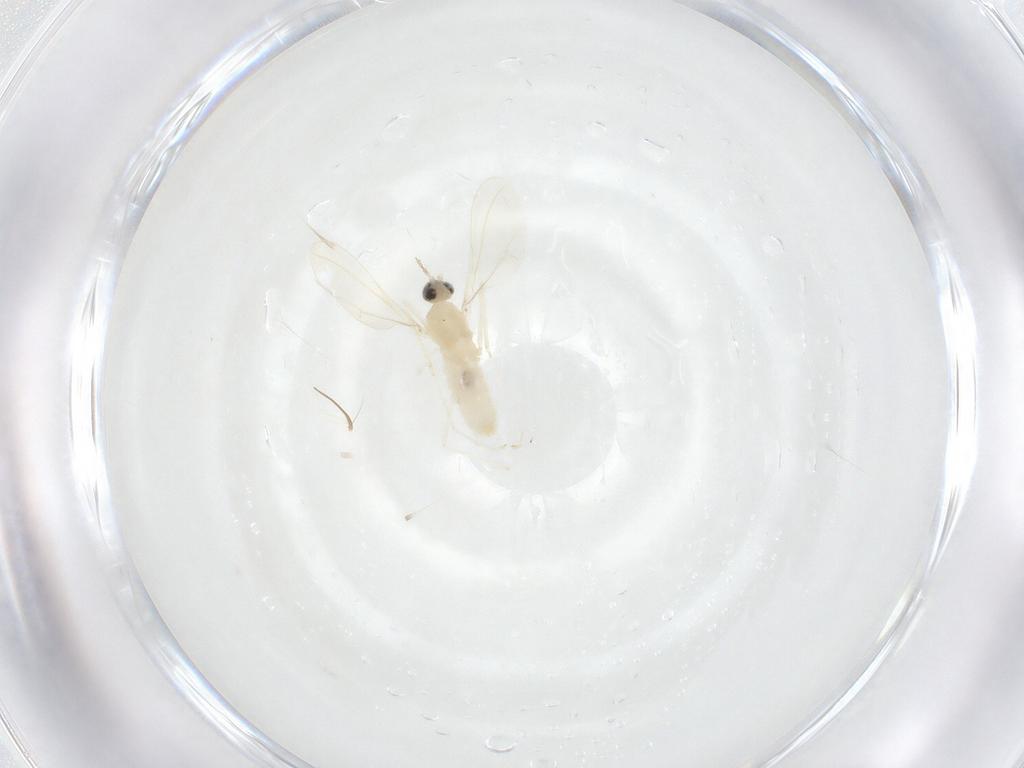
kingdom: Animalia
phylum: Arthropoda
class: Insecta
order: Diptera
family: Cecidomyiidae
